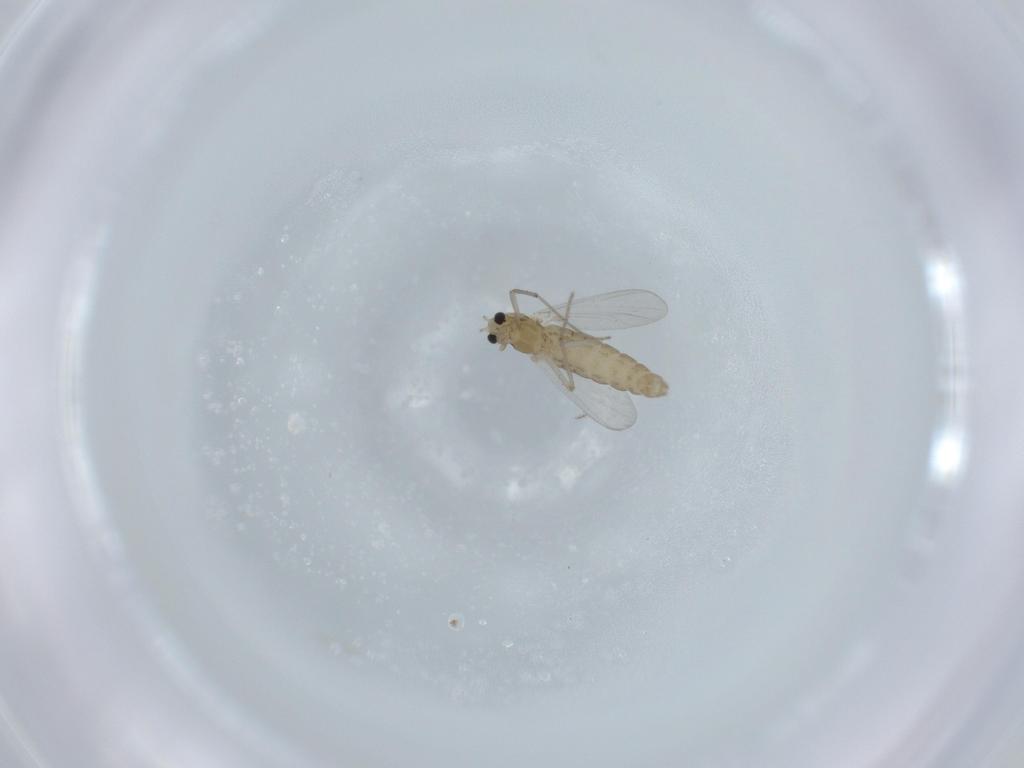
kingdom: Animalia
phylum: Arthropoda
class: Insecta
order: Diptera
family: Chironomidae
